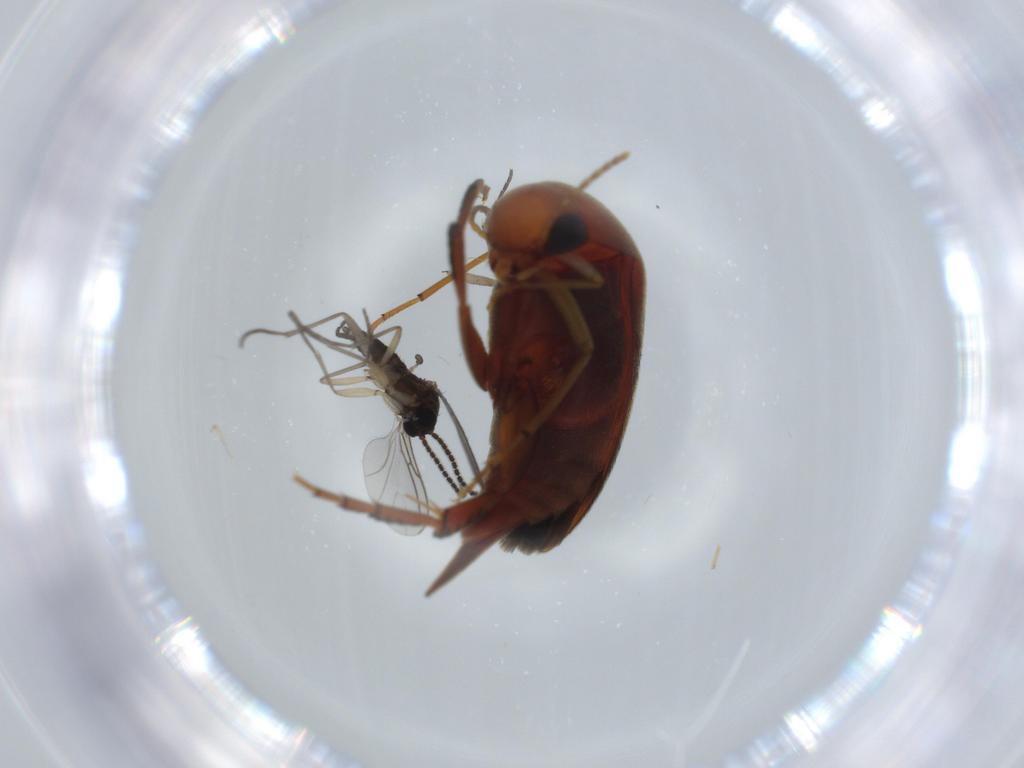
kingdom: Animalia
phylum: Arthropoda
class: Insecta
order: Diptera
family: Sciaridae
